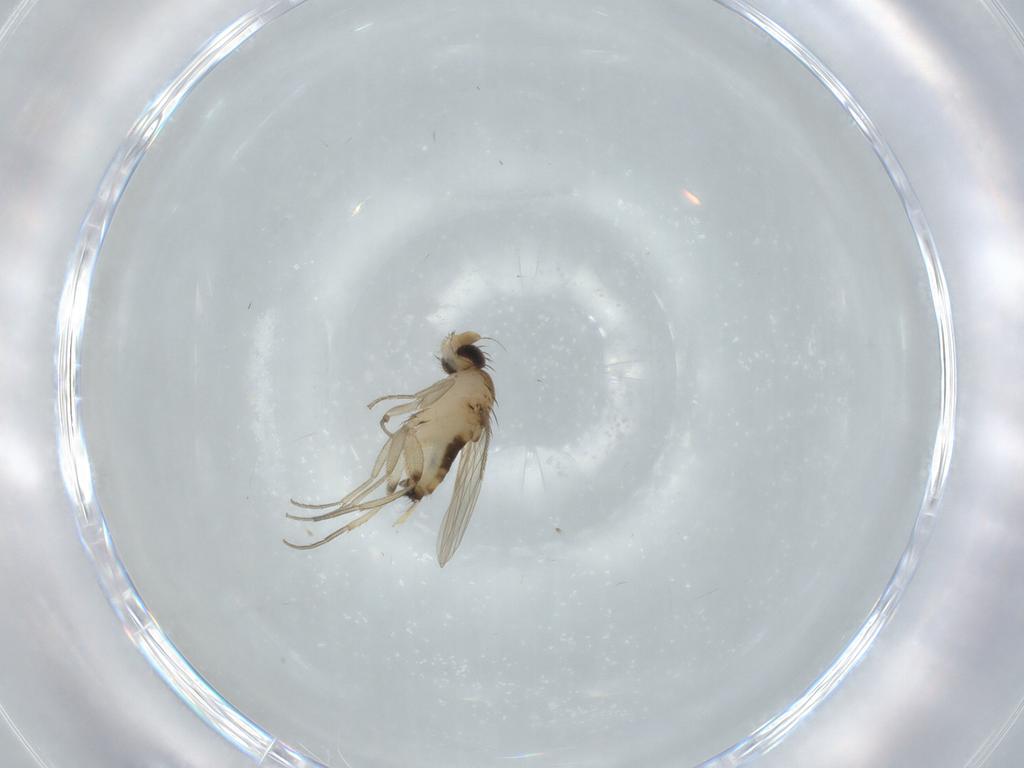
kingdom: Animalia
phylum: Arthropoda
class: Insecta
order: Diptera
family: Phoridae
